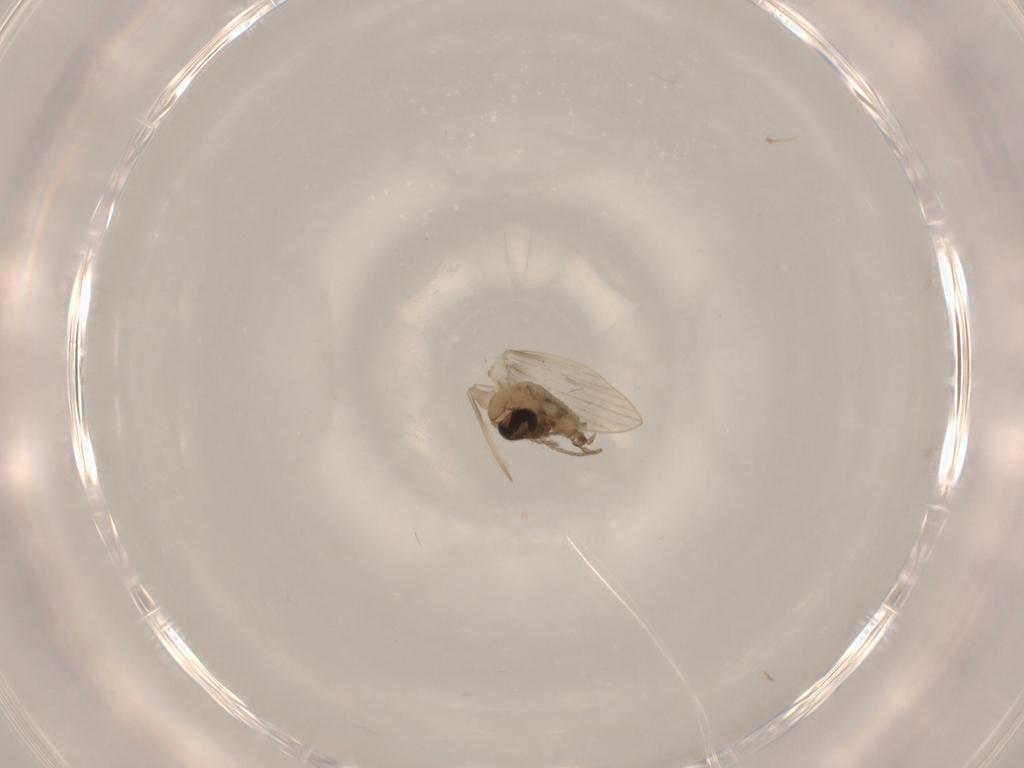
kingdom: Animalia
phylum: Arthropoda
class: Insecta
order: Diptera
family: Psychodidae
